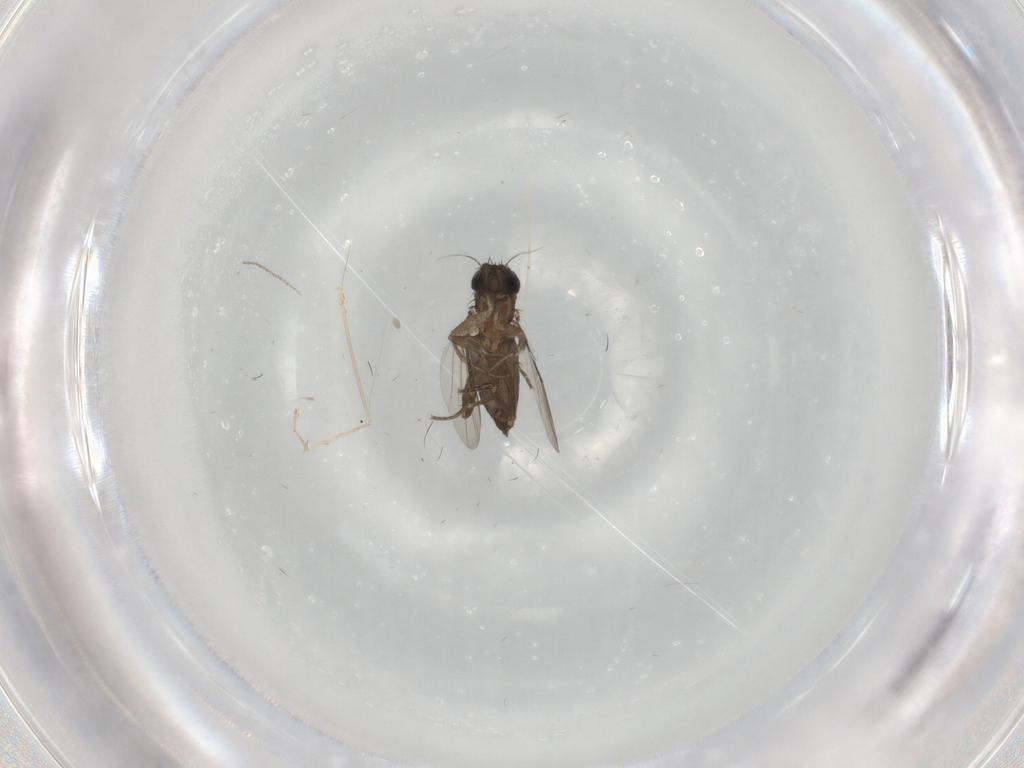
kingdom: Animalia
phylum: Arthropoda
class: Insecta
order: Diptera
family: Phoridae
